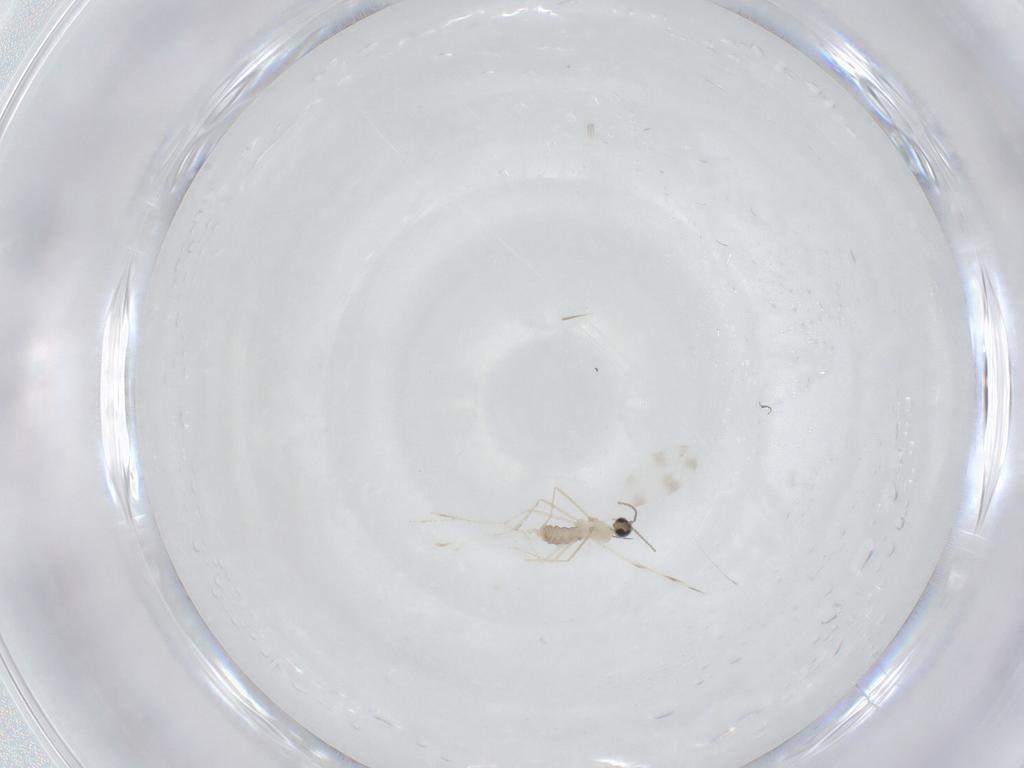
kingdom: Animalia
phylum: Arthropoda
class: Insecta
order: Diptera
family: Cecidomyiidae
